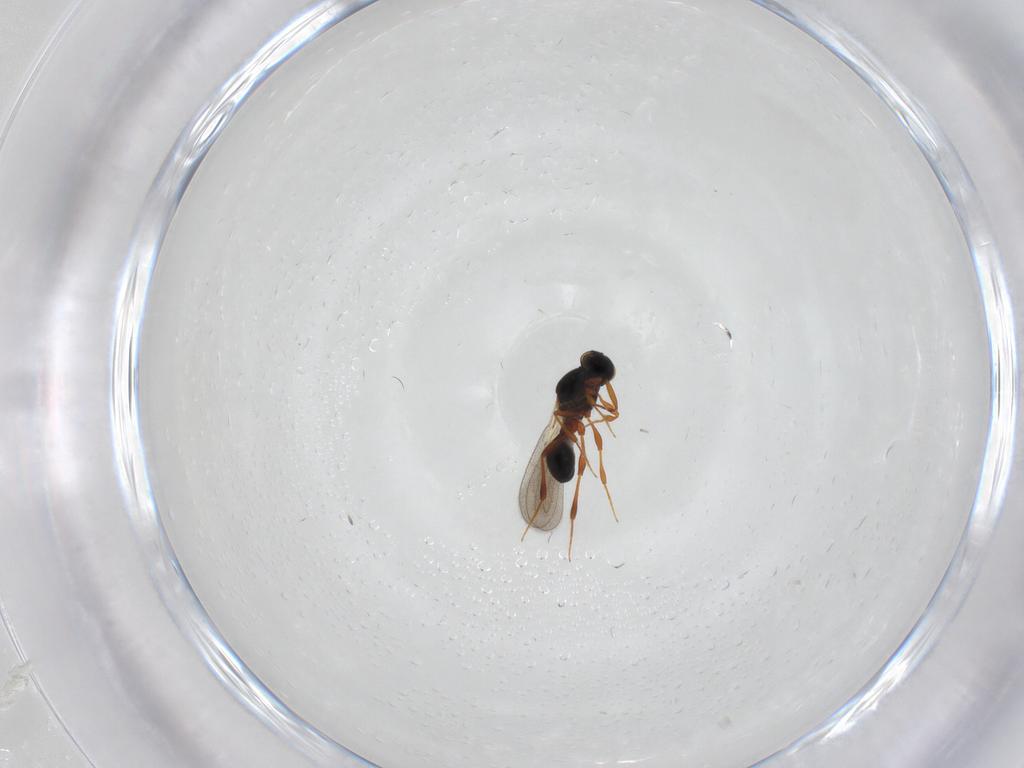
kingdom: Animalia
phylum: Arthropoda
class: Insecta
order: Hymenoptera
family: Platygastridae
